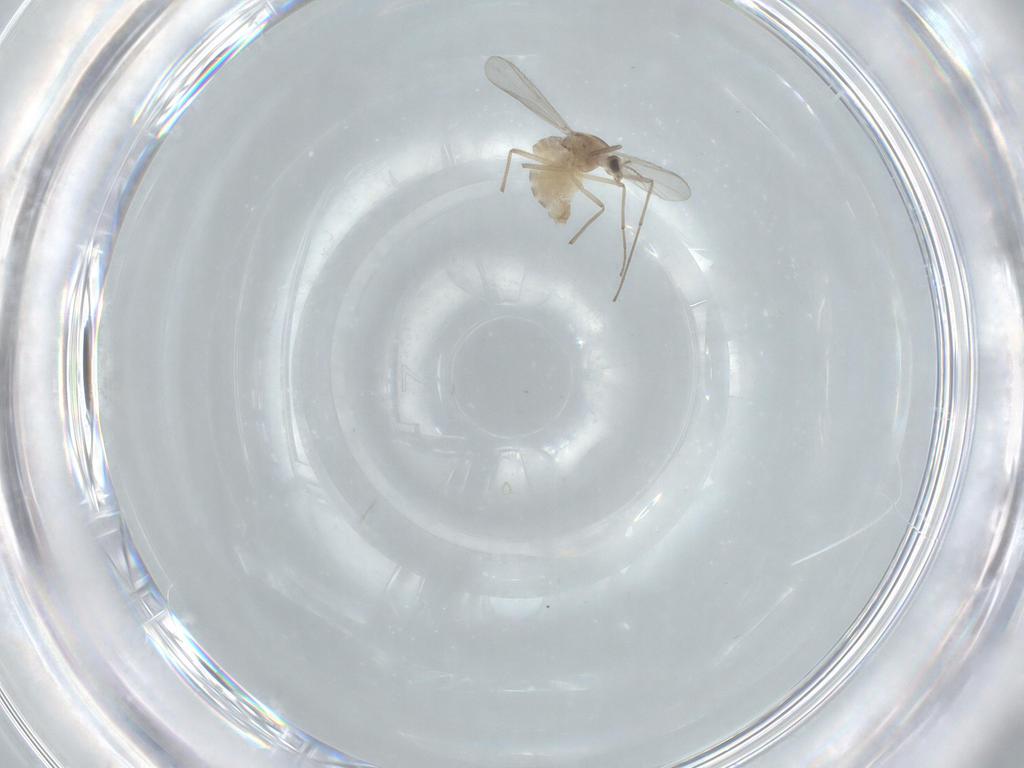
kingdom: Animalia
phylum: Arthropoda
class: Insecta
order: Diptera
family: Chironomidae
